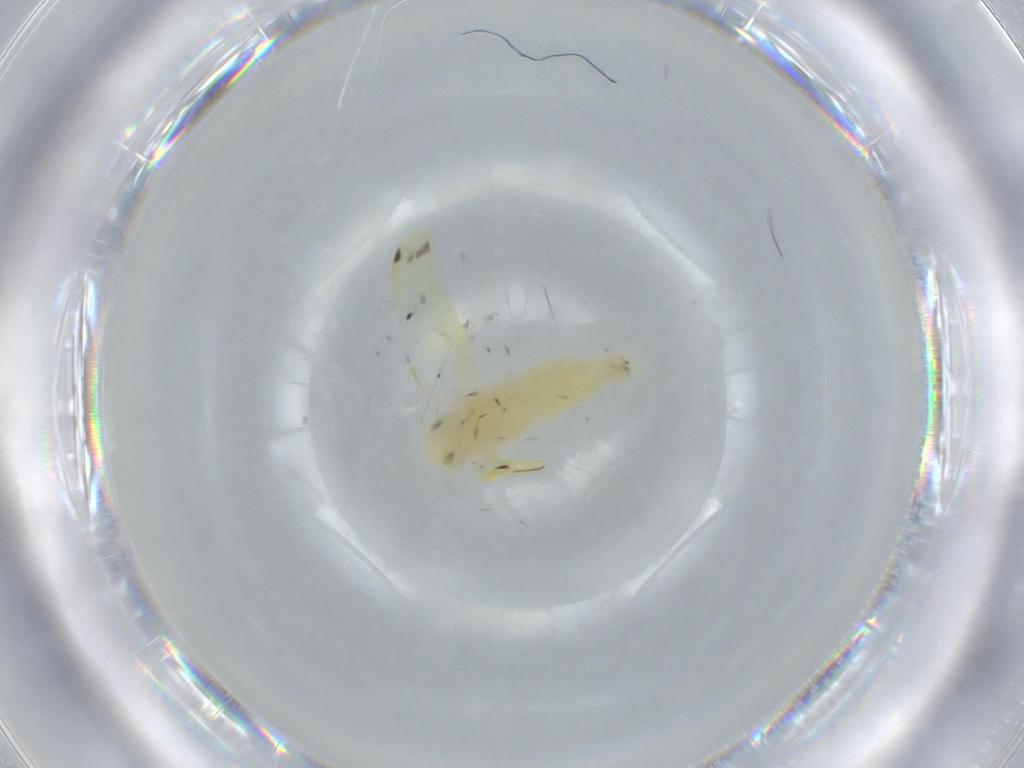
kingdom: Animalia
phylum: Arthropoda
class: Insecta
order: Hemiptera
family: Cicadellidae
